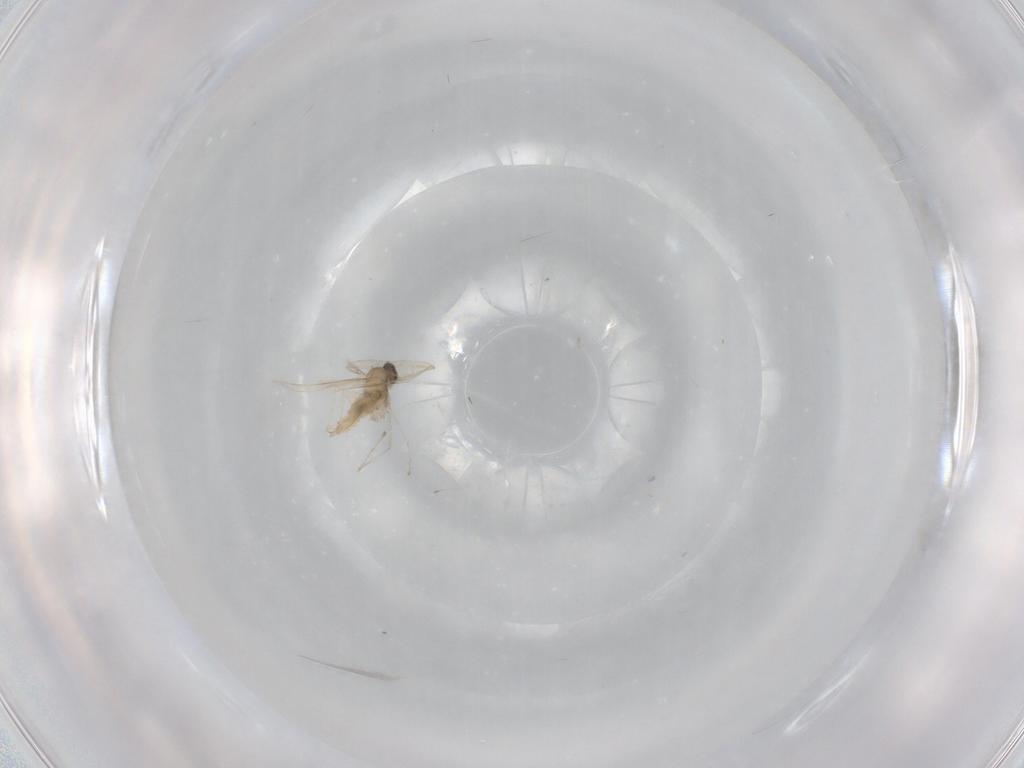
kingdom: Animalia
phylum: Arthropoda
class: Insecta
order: Diptera
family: Cecidomyiidae
